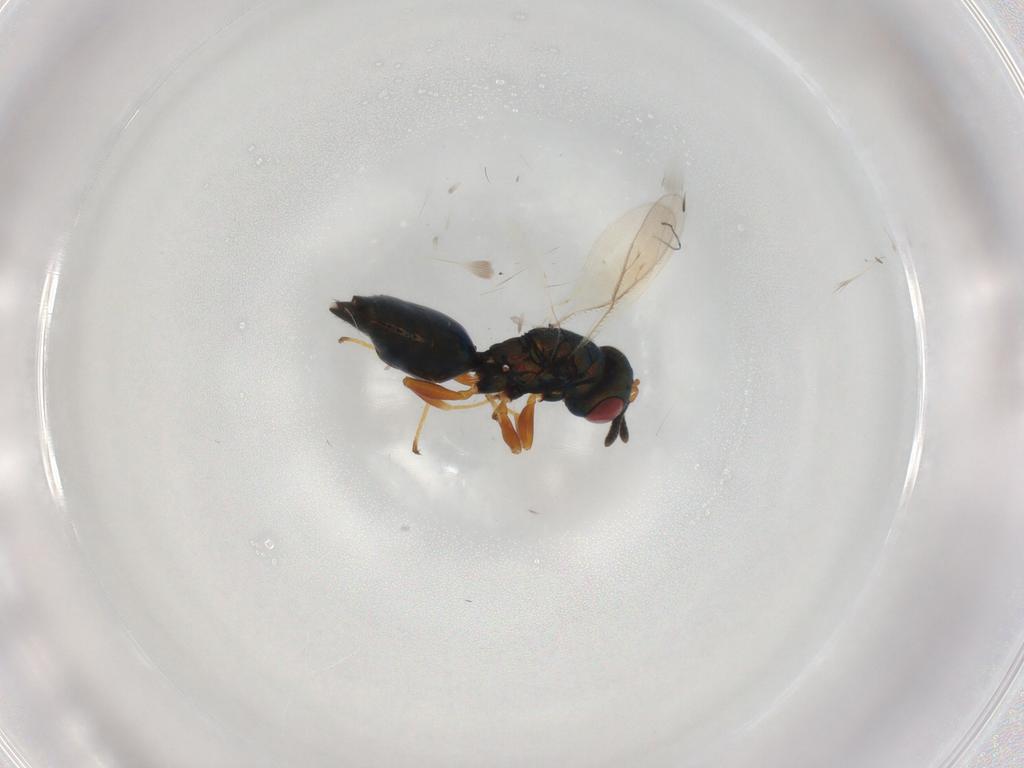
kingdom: Animalia
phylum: Arthropoda
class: Insecta
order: Hymenoptera
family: Pteromalidae
